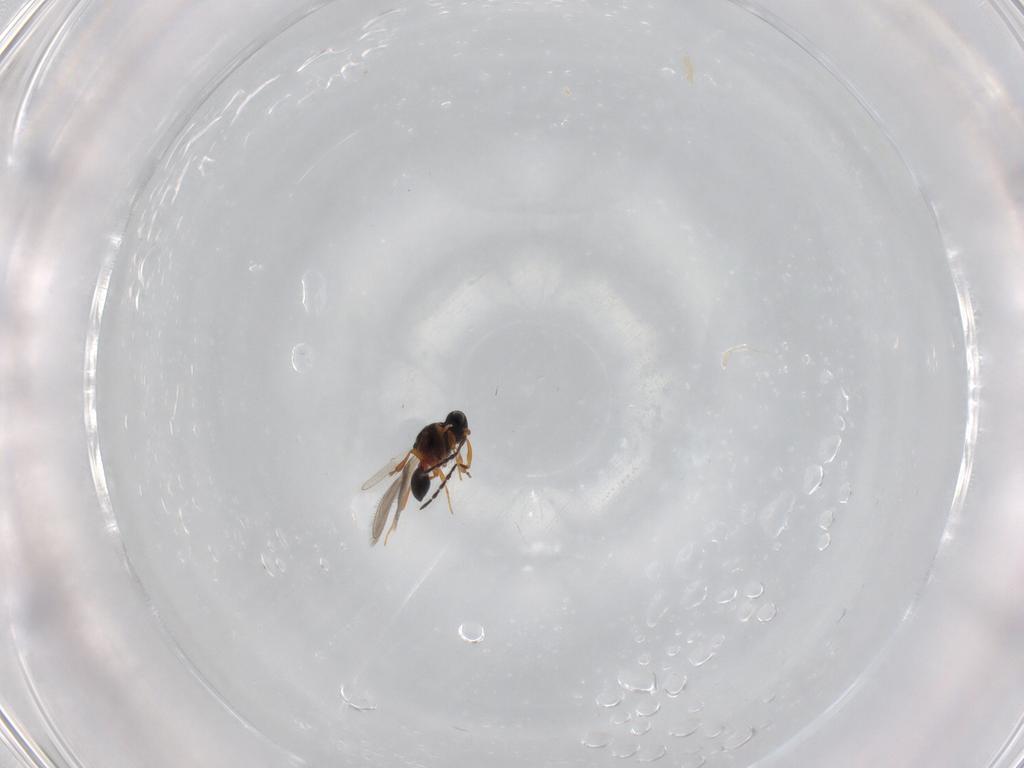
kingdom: Animalia
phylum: Arthropoda
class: Insecta
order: Hymenoptera
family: Platygastridae
